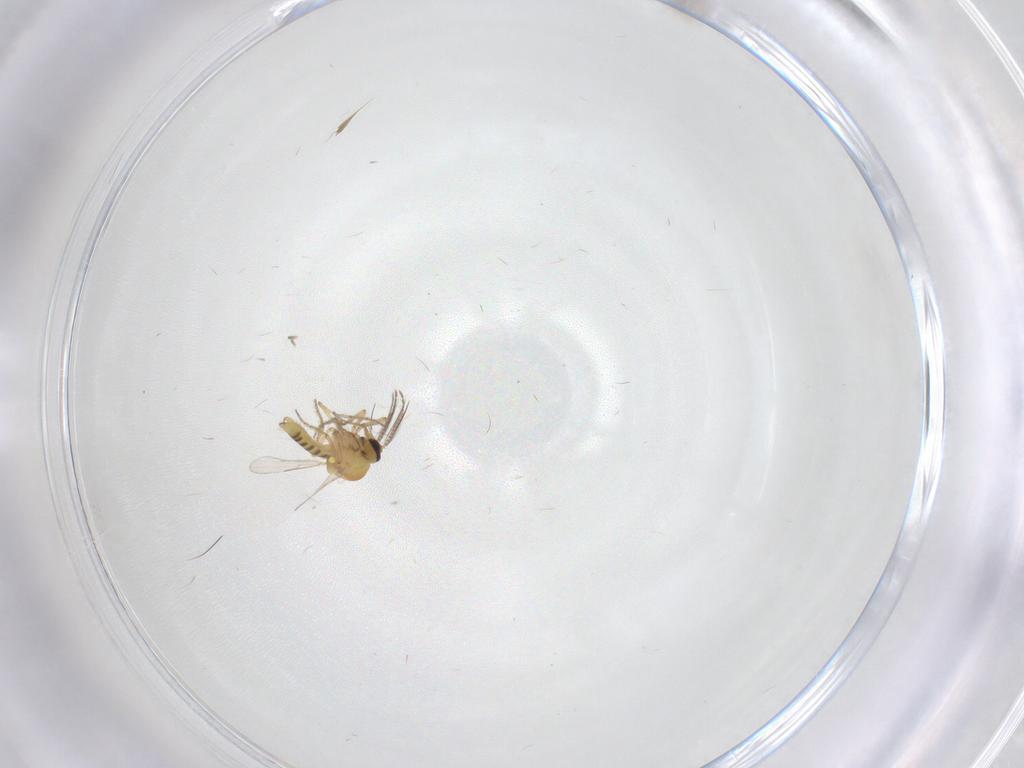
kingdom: Animalia
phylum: Arthropoda
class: Insecta
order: Diptera
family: Ceratopogonidae
